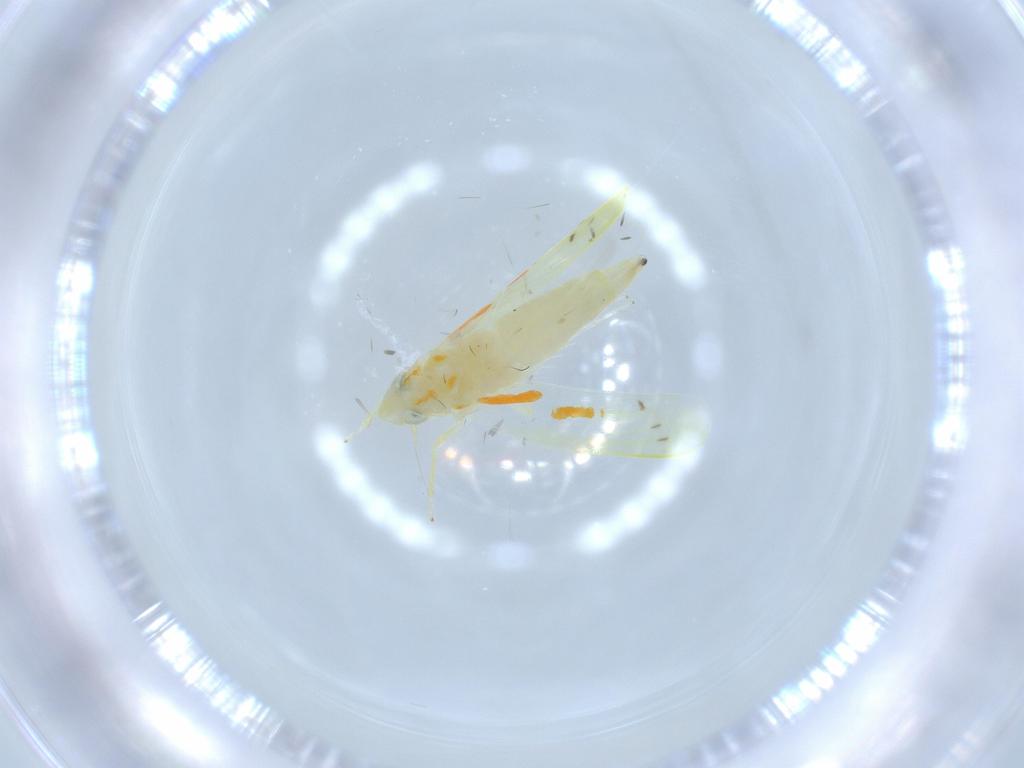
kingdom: Animalia
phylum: Arthropoda
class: Insecta
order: Hemiptera
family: Cicadellidae
